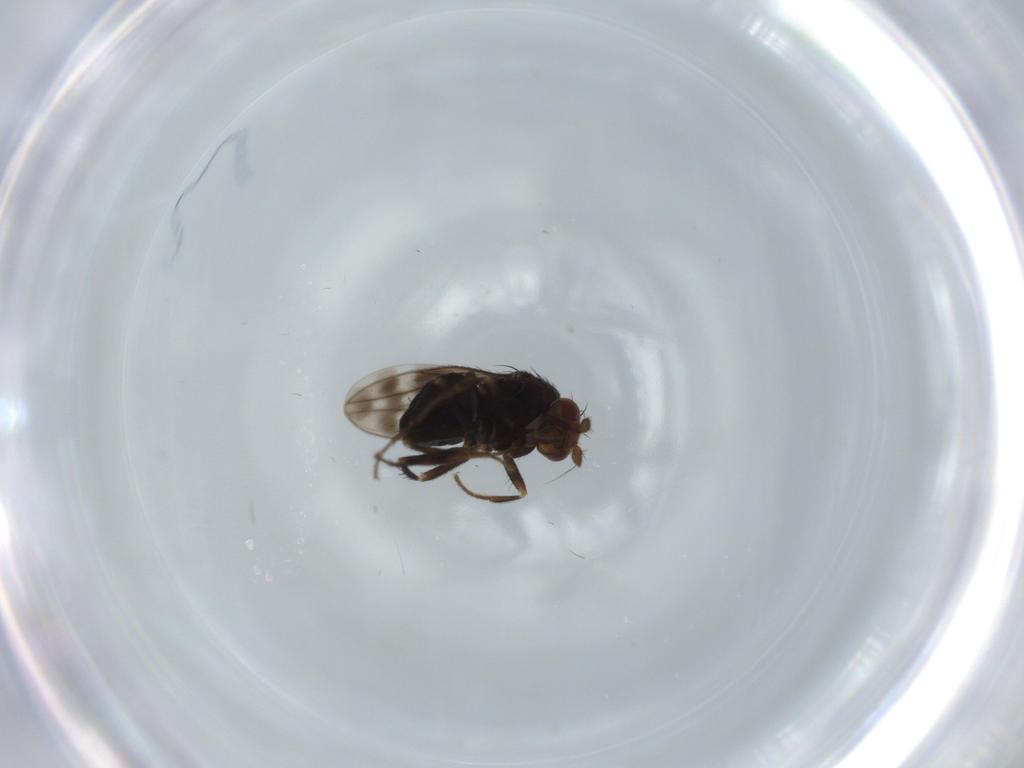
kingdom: Animalia
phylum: Arthropoda
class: Insecta
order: Diptera
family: Sphaeroceridae
